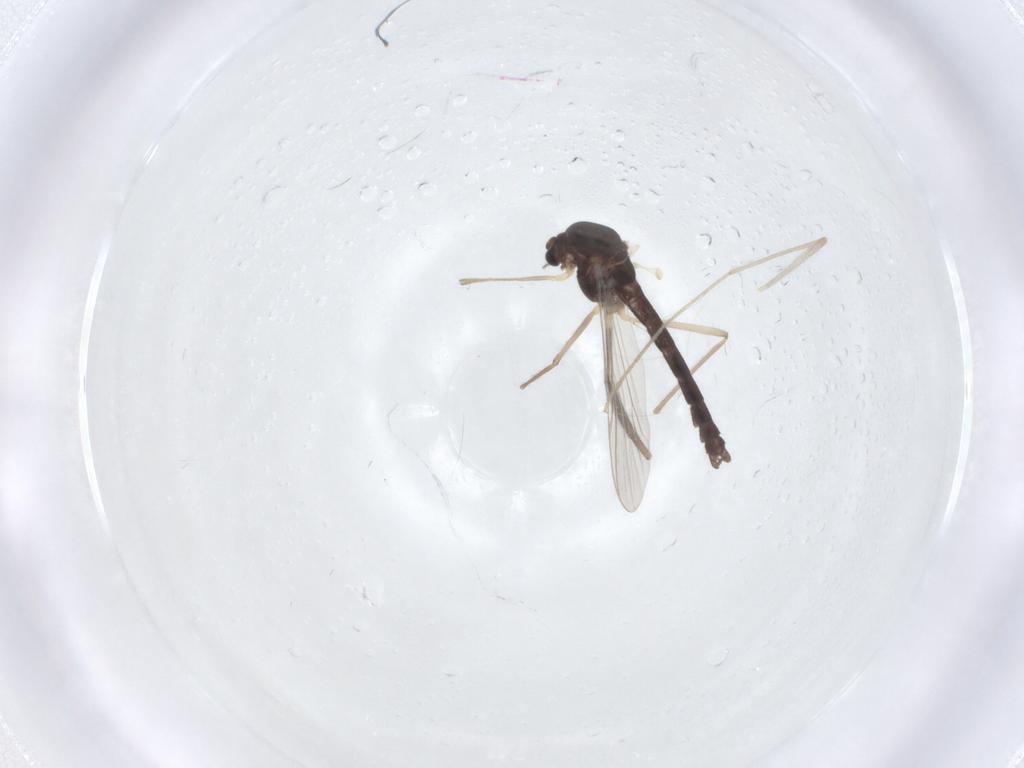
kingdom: Animalia
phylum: Arthropoda
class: Insecta
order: Diptera
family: Chironomidae
